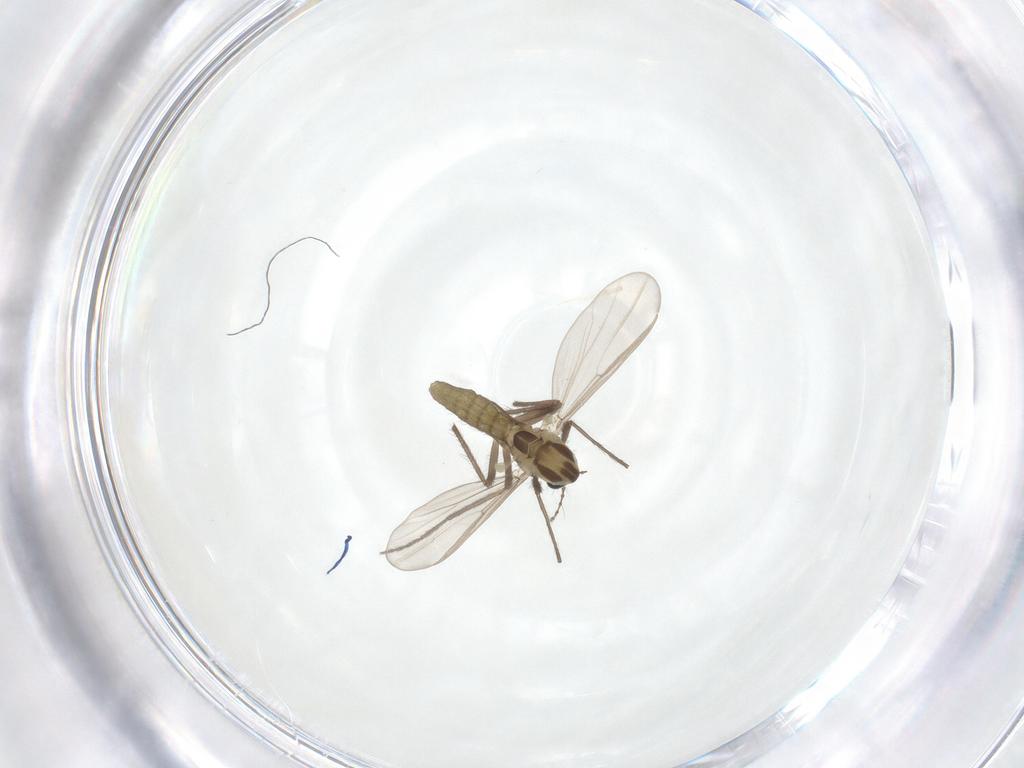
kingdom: Animalia
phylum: Arthropoda
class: Insecta
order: Diptera
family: Chironomidae
